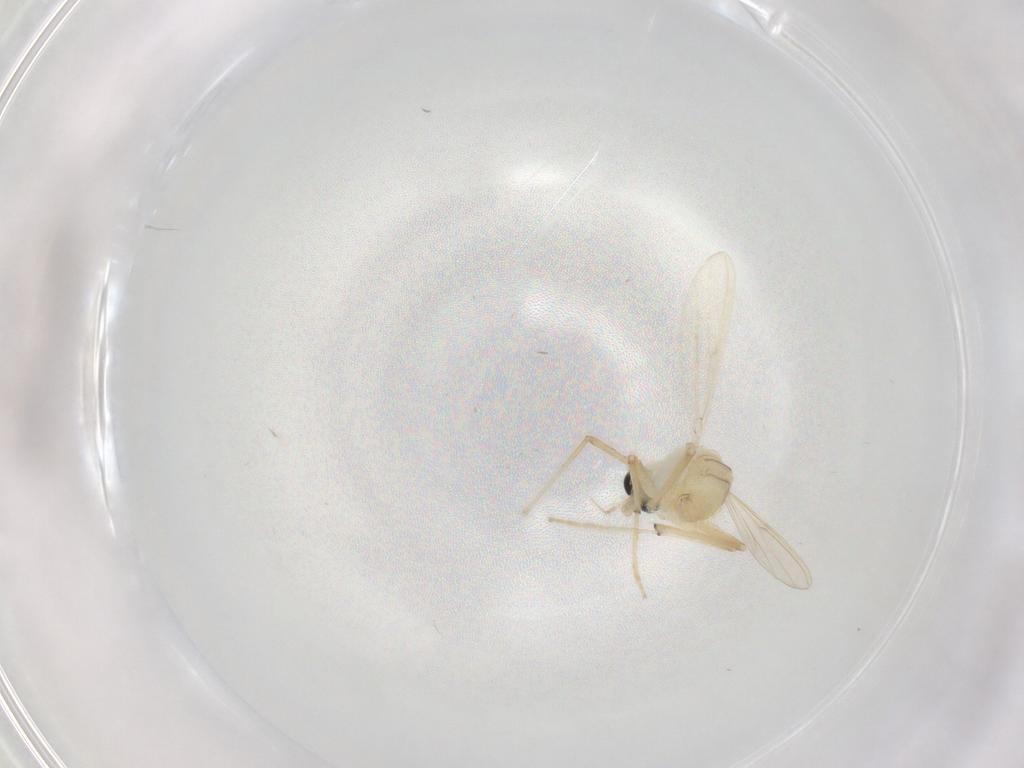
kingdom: Animalia
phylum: Arthropoda
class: Insecta
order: Diptera
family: Chironomidae
